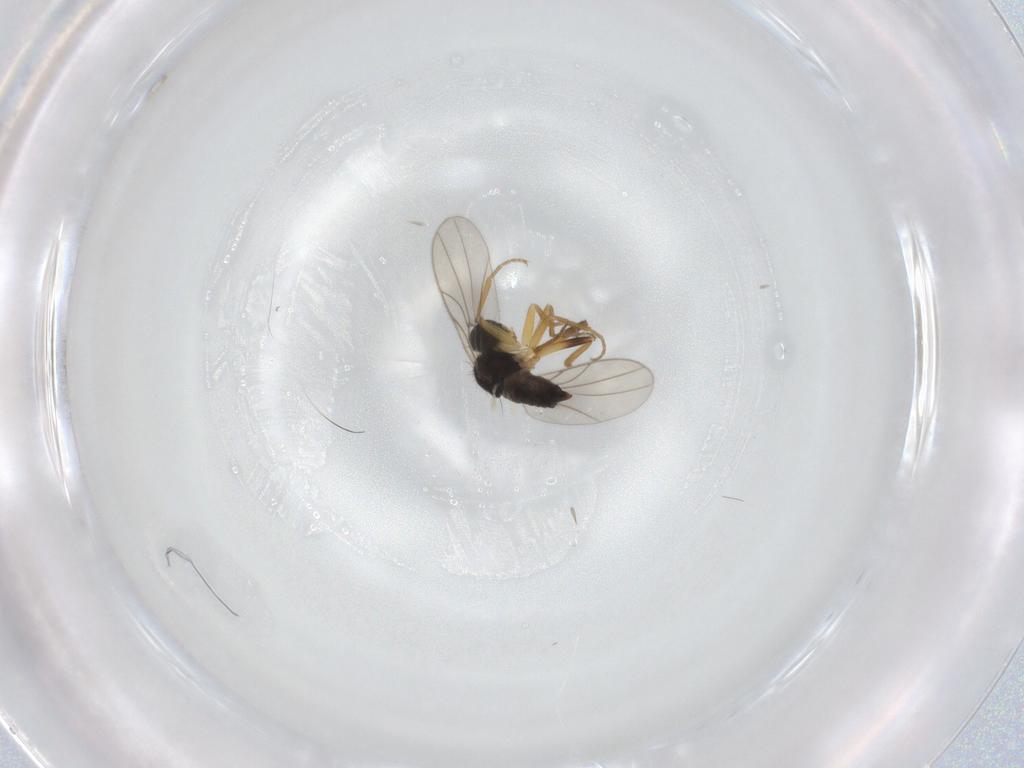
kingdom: Animalia
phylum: Arthropoda
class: Insecta
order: Diptera
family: Hybotidae
